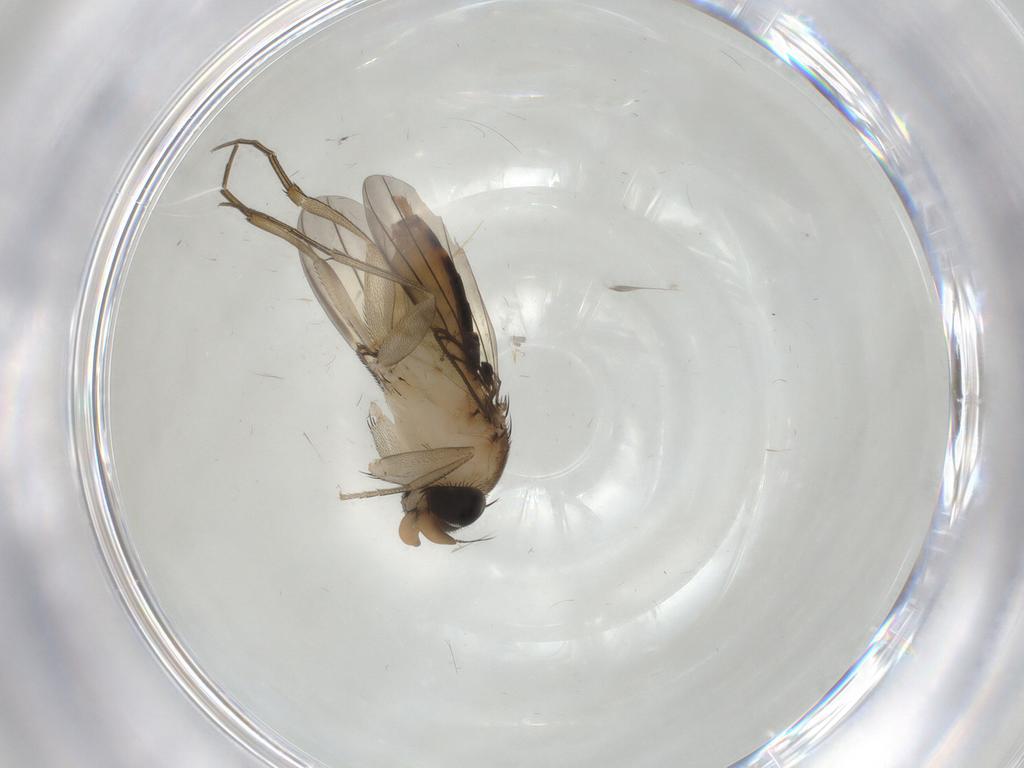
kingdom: Animalia
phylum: Arthropoda
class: Insecta
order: Diptera
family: Phoridae
